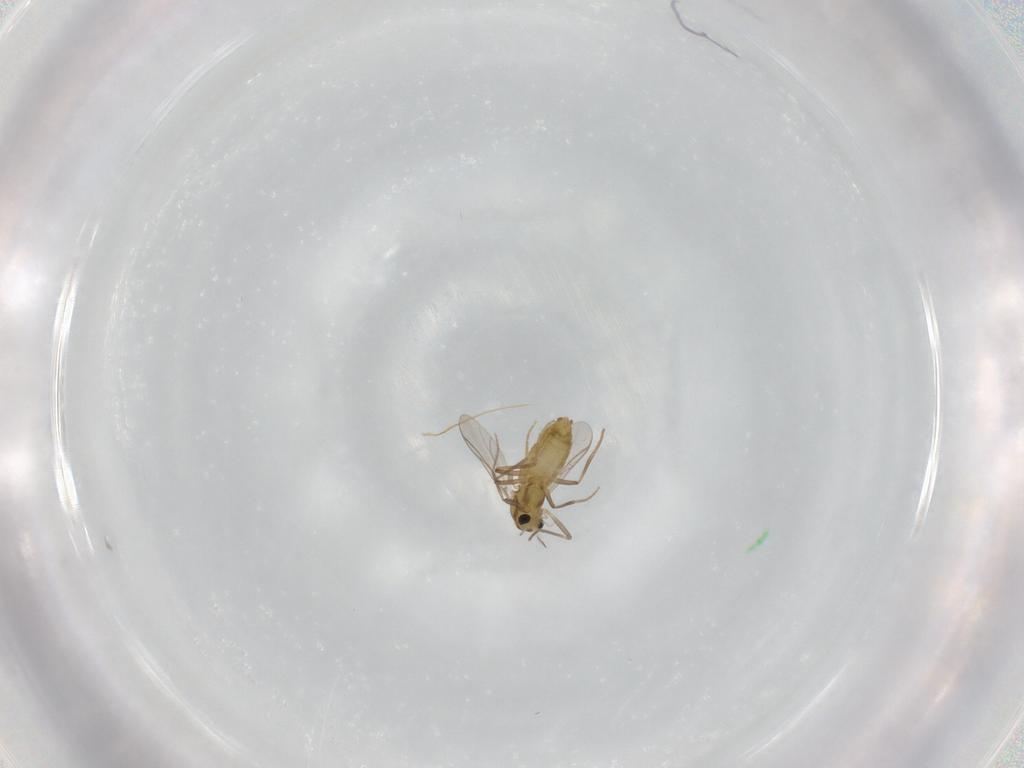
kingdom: Animalia
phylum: Arthropoda
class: Insecta
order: Diptera
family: Chironomidae
